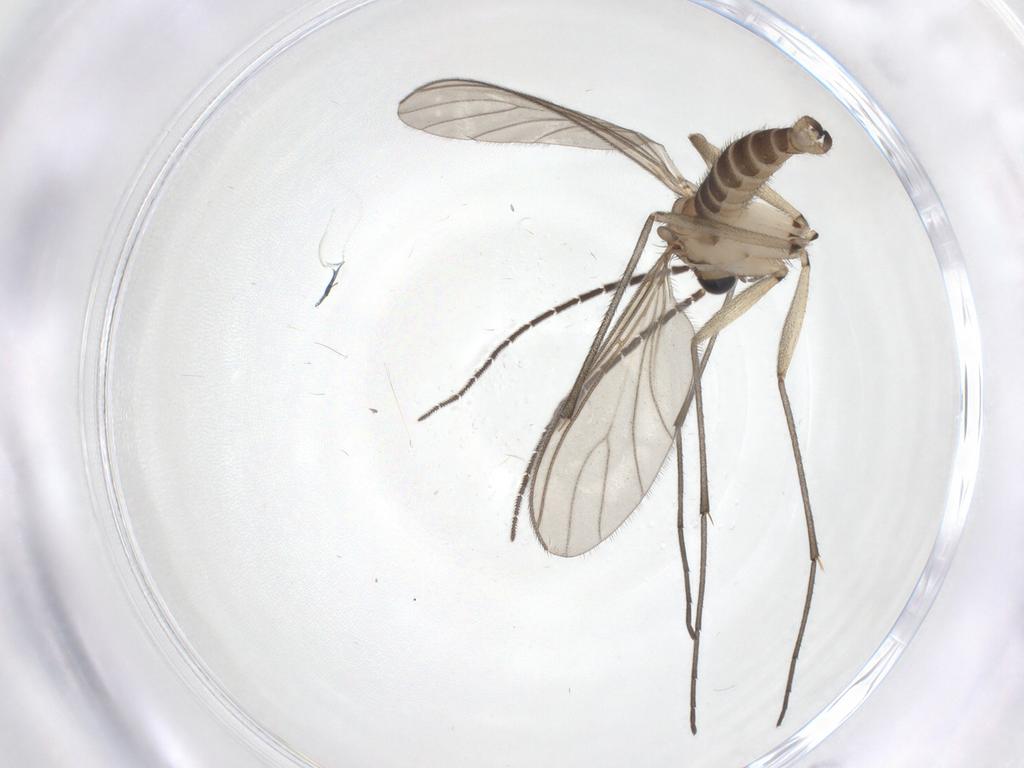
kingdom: Animalia
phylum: Arthropoda
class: Insecta
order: Diptera
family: Sciaridae
